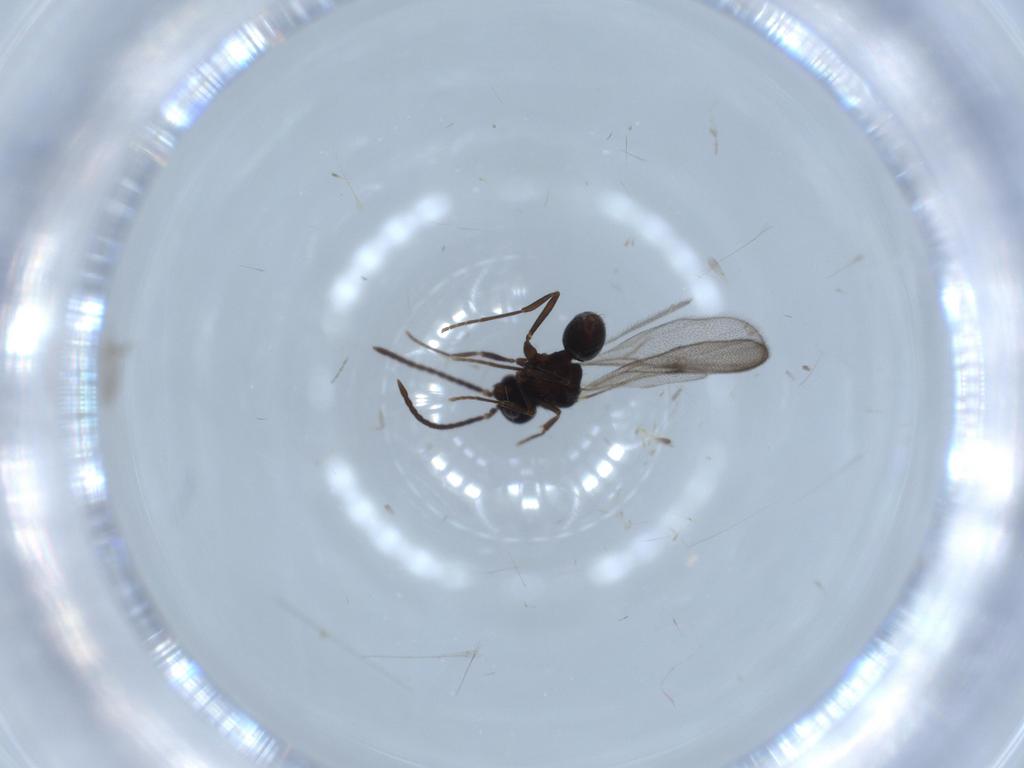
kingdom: Animalia
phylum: Arthropoda
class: Insecta
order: Hymenoptera
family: Formicidae
